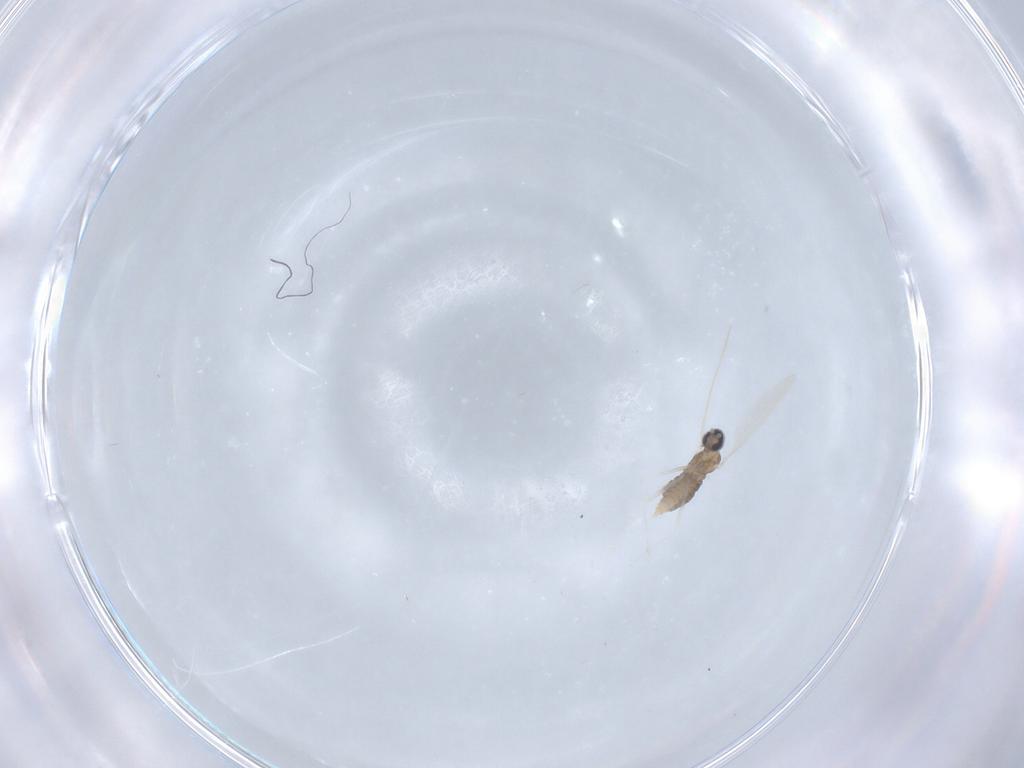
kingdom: Animalia
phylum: Arthropoda
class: Insecta
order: Diptera
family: Cecidomyiidae
